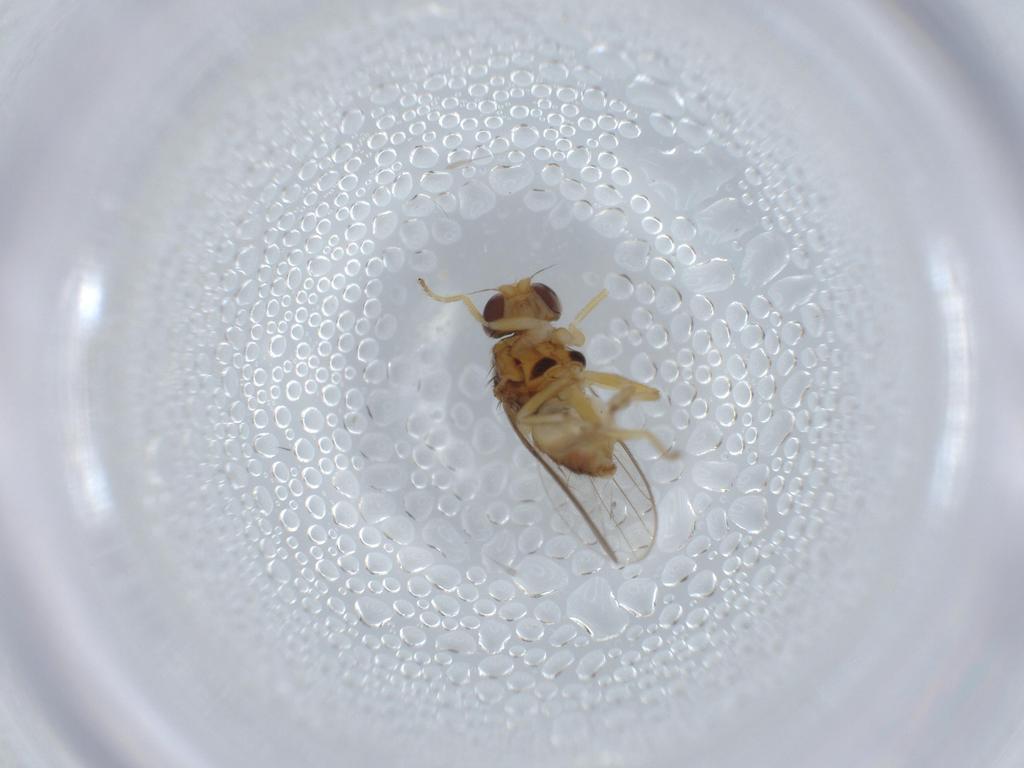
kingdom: Animalia
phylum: Arthropoda
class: Insecta
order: Diptera
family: Chloropidae
